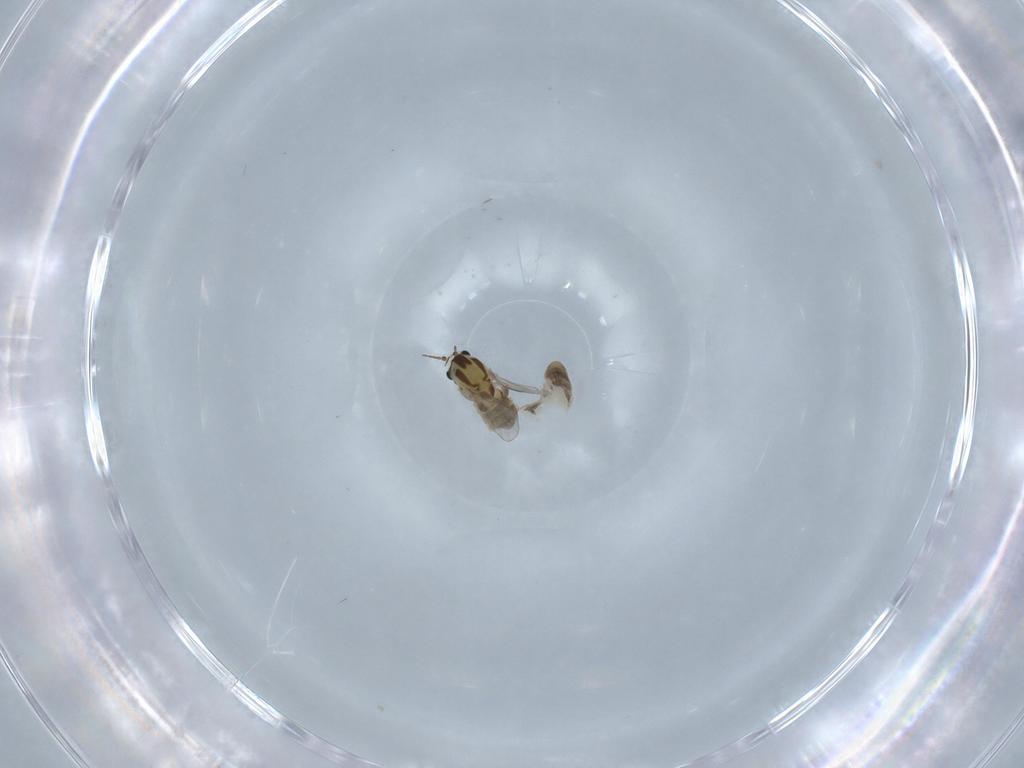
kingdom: Animalia
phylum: Arthropoda
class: Insecta
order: Diptera
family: Chironomidae
